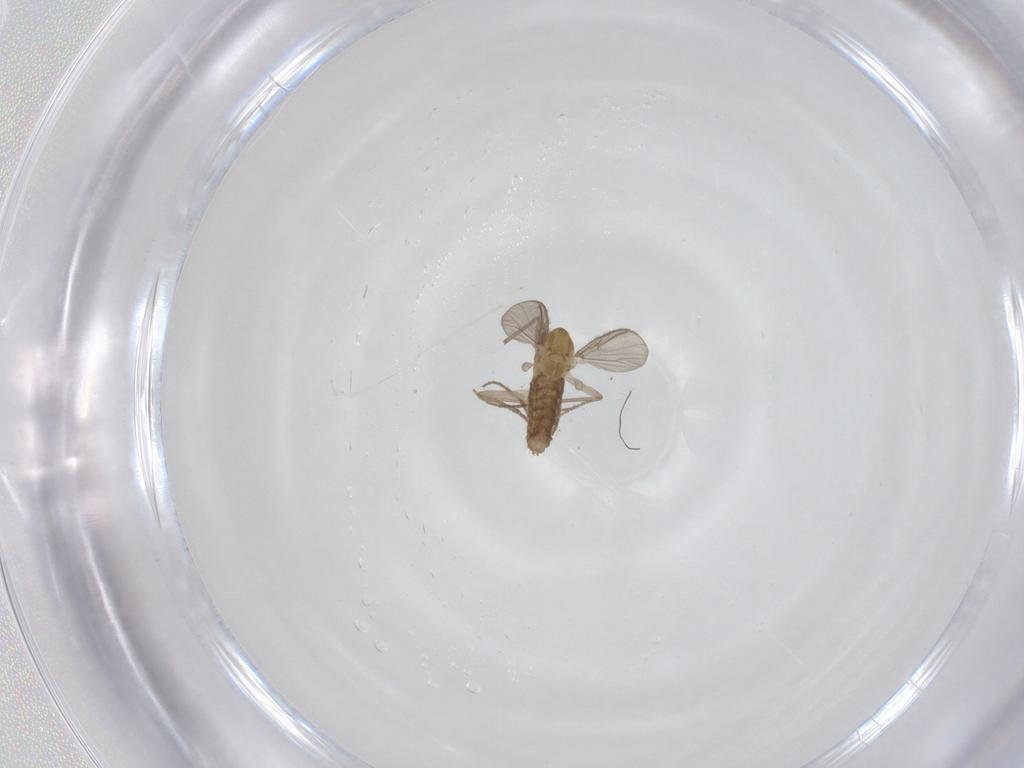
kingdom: Animalia
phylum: Arthropoda
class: Insecta
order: Diptera
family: Chironomidae
